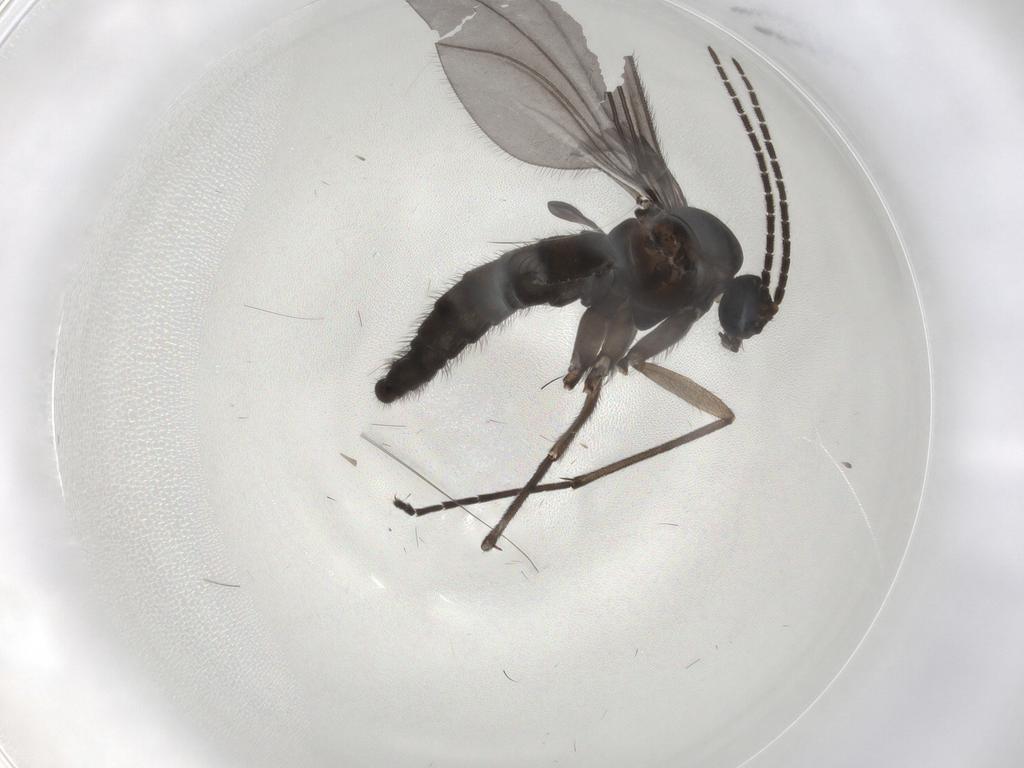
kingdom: Animalia
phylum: Arthropoda
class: Insecta
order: Diptera
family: Sciaridae
